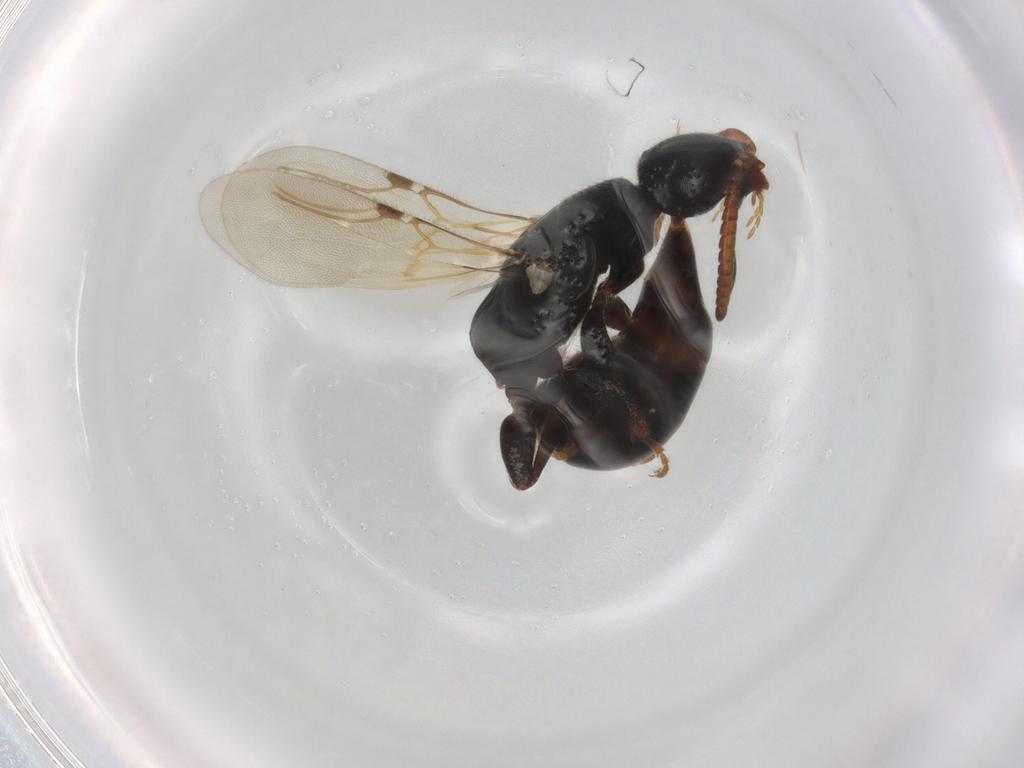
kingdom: Animalia
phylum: Arthropoda
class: Insecta
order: Hymenoptera
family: Bethylidae
